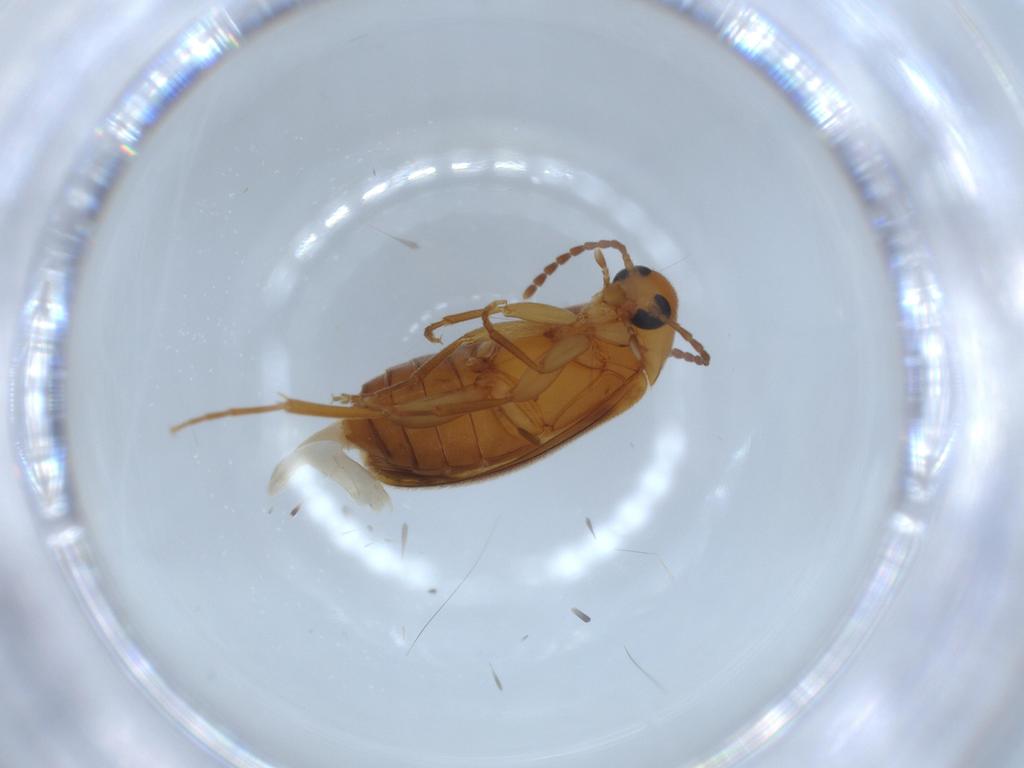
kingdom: Animalia
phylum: Arthropoda
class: Insecta
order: Coleoptera
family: Scraptiidae
